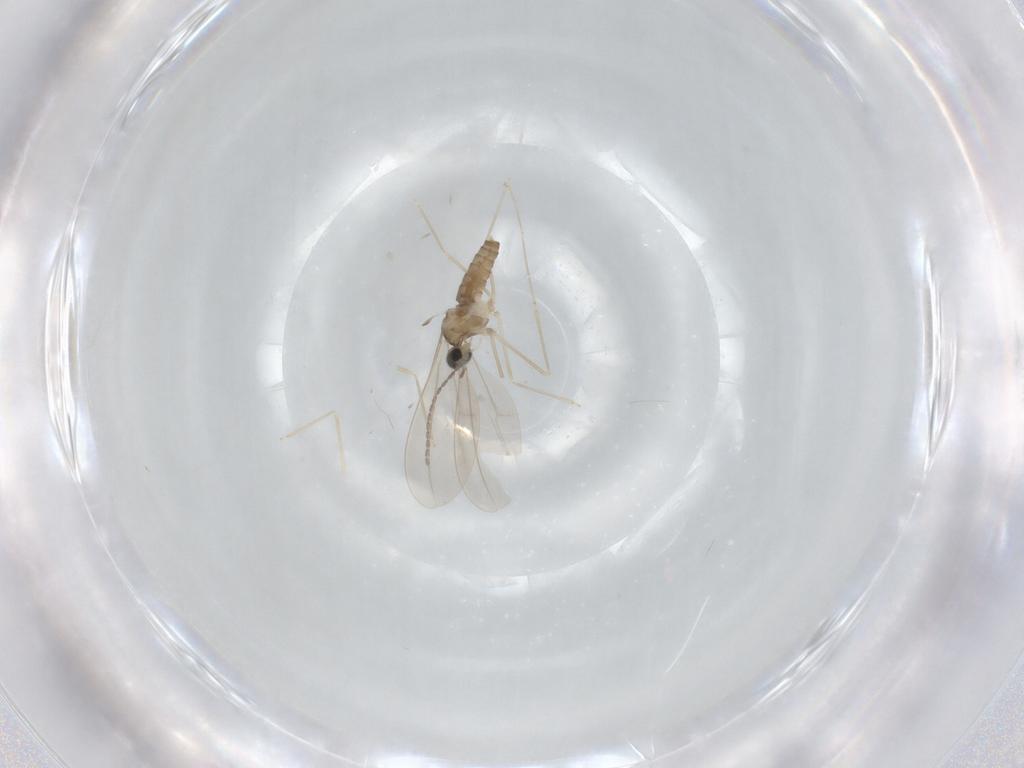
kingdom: Animalia
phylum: Arthropoda
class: Insecta
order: Diptera
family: Cecidomyiidae
